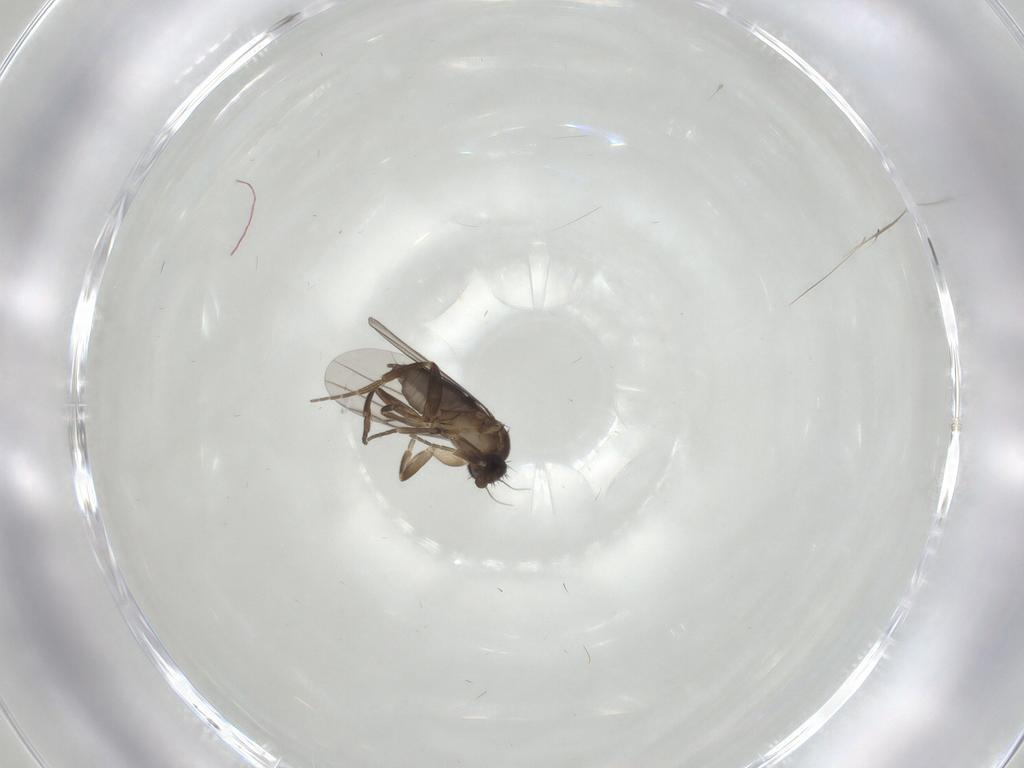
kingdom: Animalia
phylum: Arthropoda
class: Insecta
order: Diptera
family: Phoridae
